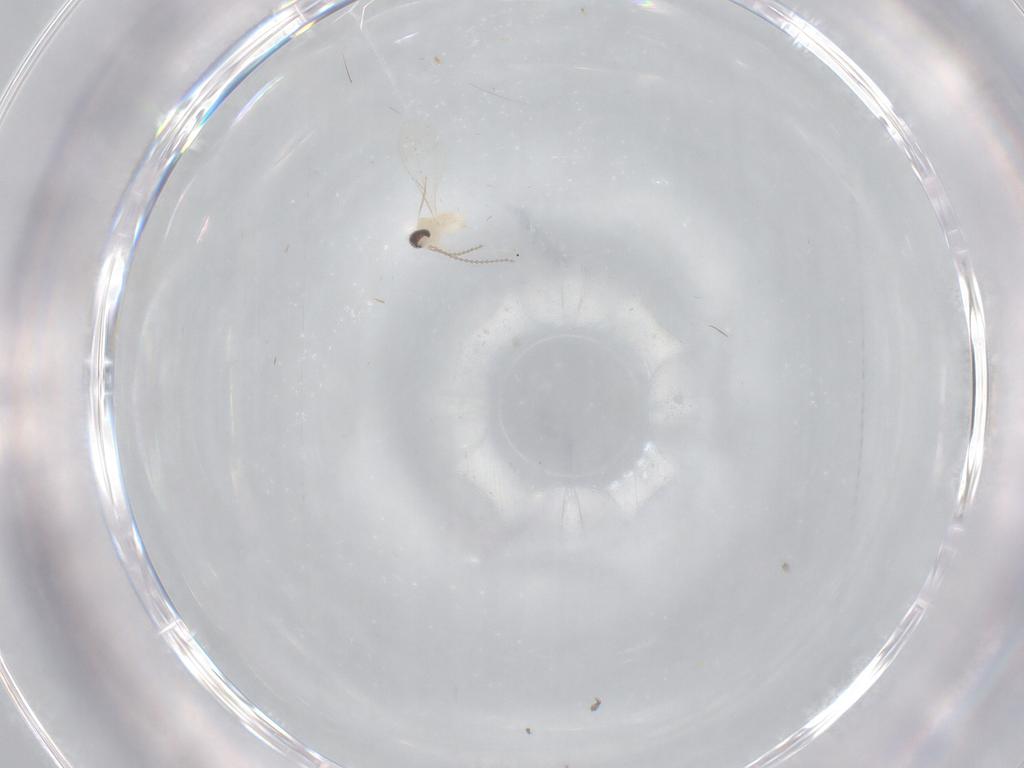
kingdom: Animalia
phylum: Arthropoda
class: Insecta
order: Diptera
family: Cecidomyiidae
